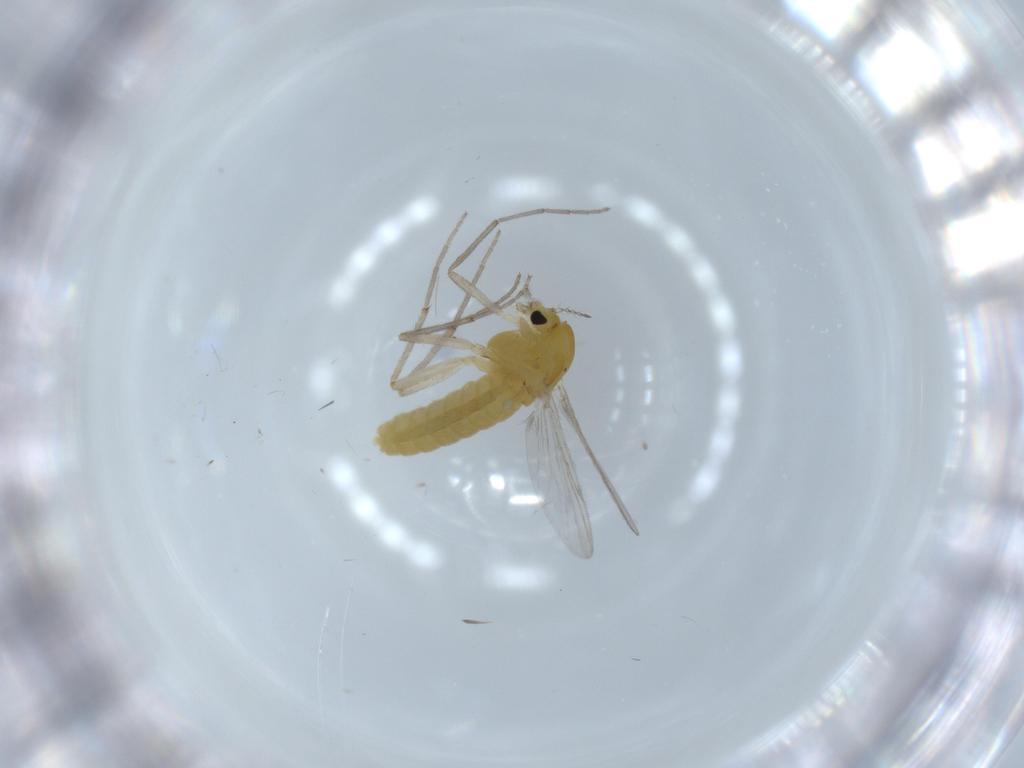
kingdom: Animalia
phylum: Arthropoda
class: Insecta
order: Diptera
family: Chironomidae
